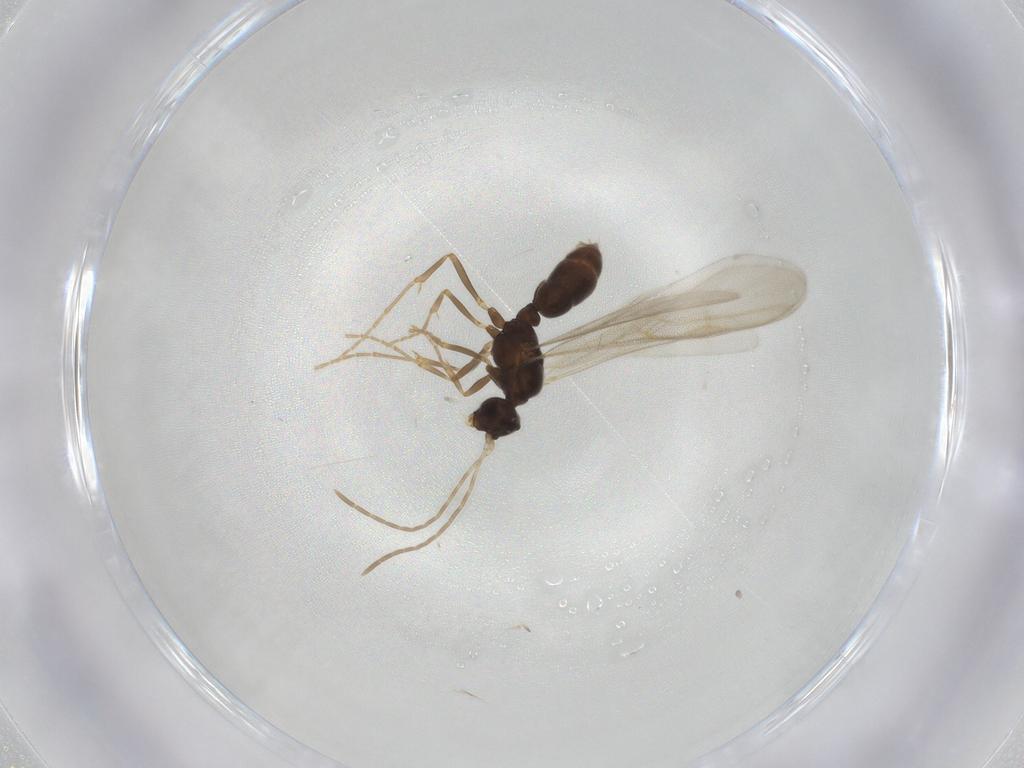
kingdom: Animalia
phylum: Arthropoda
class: Insecta
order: Hymenoptera
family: Formicidae
